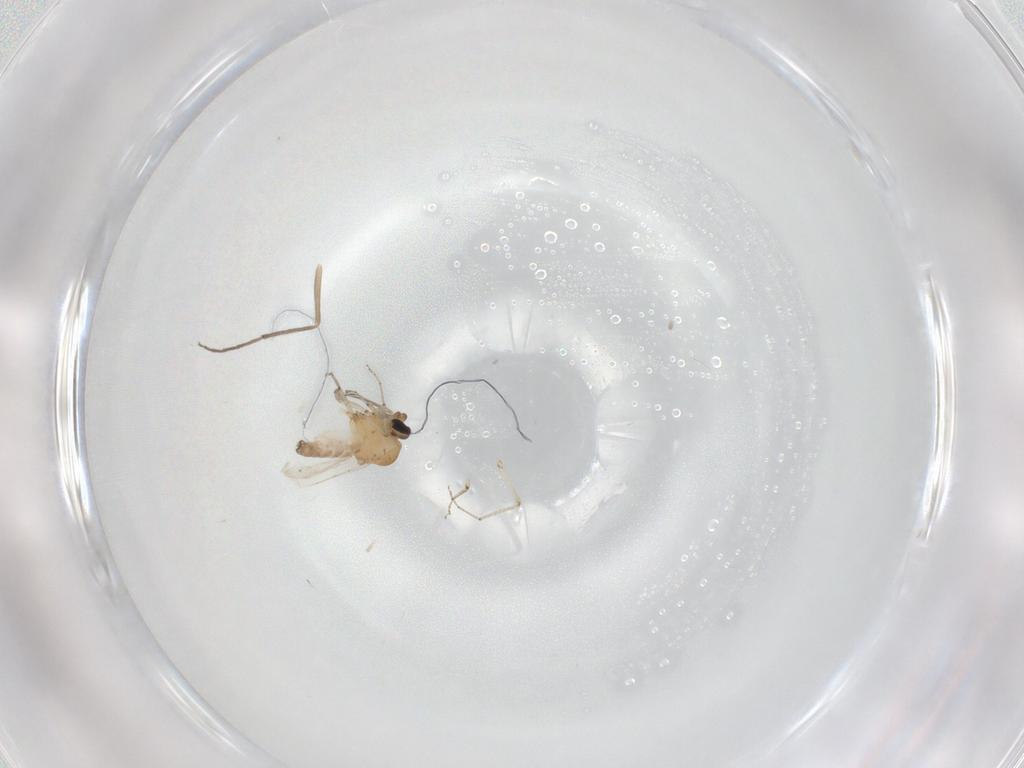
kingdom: Animalia
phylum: Arthropoda
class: Insecta
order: Diptera
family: Ceratopogonidae
